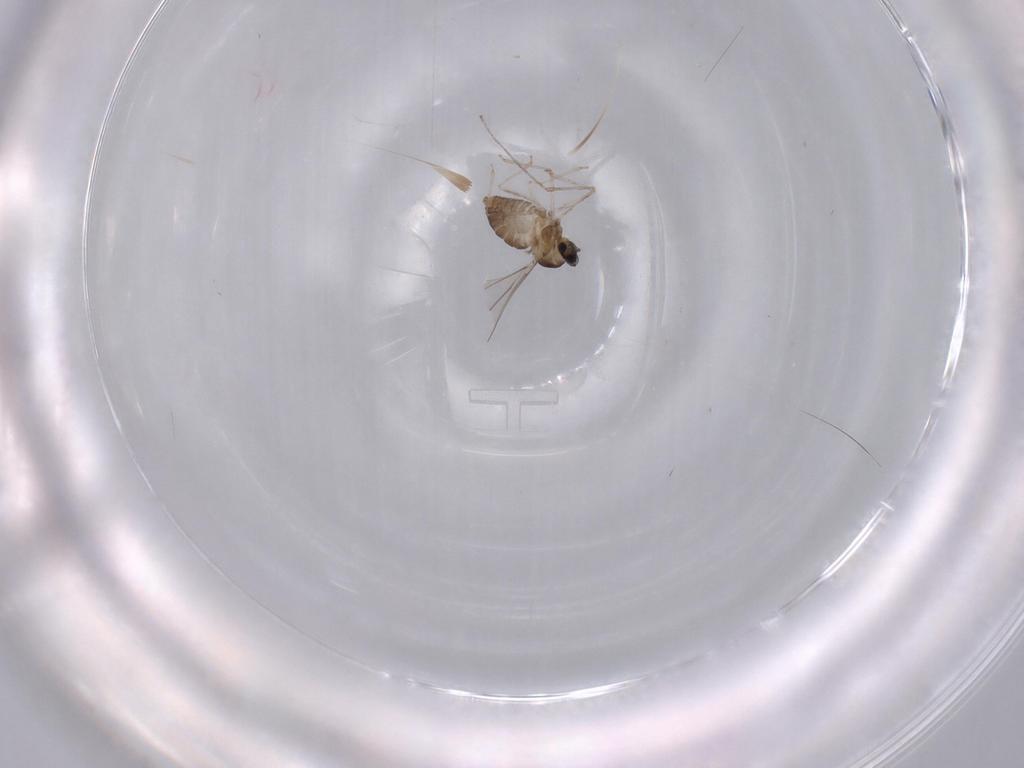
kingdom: Animalia
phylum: Arthropoda
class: Insecta
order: Diptera
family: Cecidomyiidae
